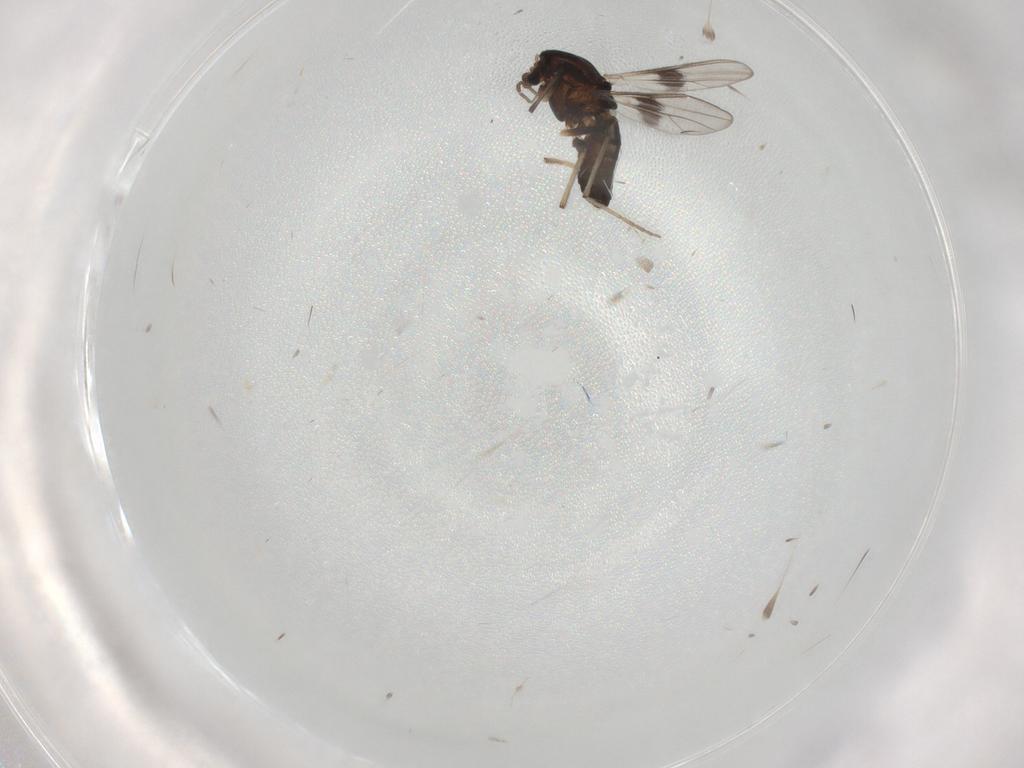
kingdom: Animalia
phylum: Arthropoda
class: Insecta
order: Diptera
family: Chironomidae
